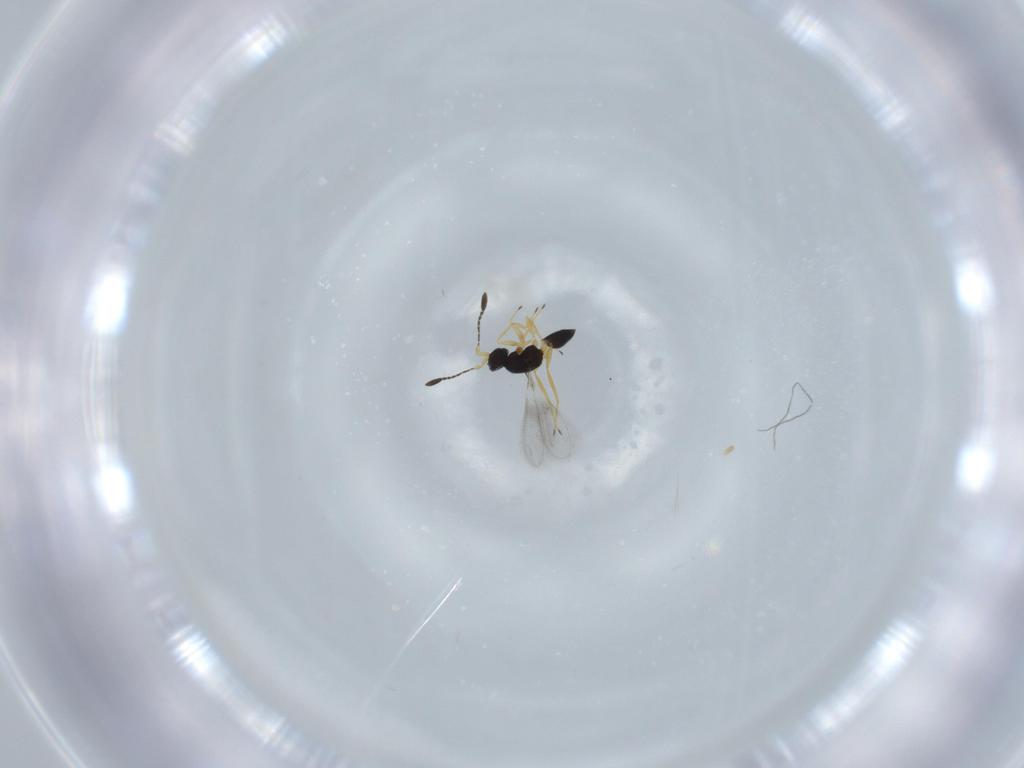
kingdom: Animalia
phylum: Arthropoda
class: Insecta
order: Hymenoptera
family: Mymaridae
